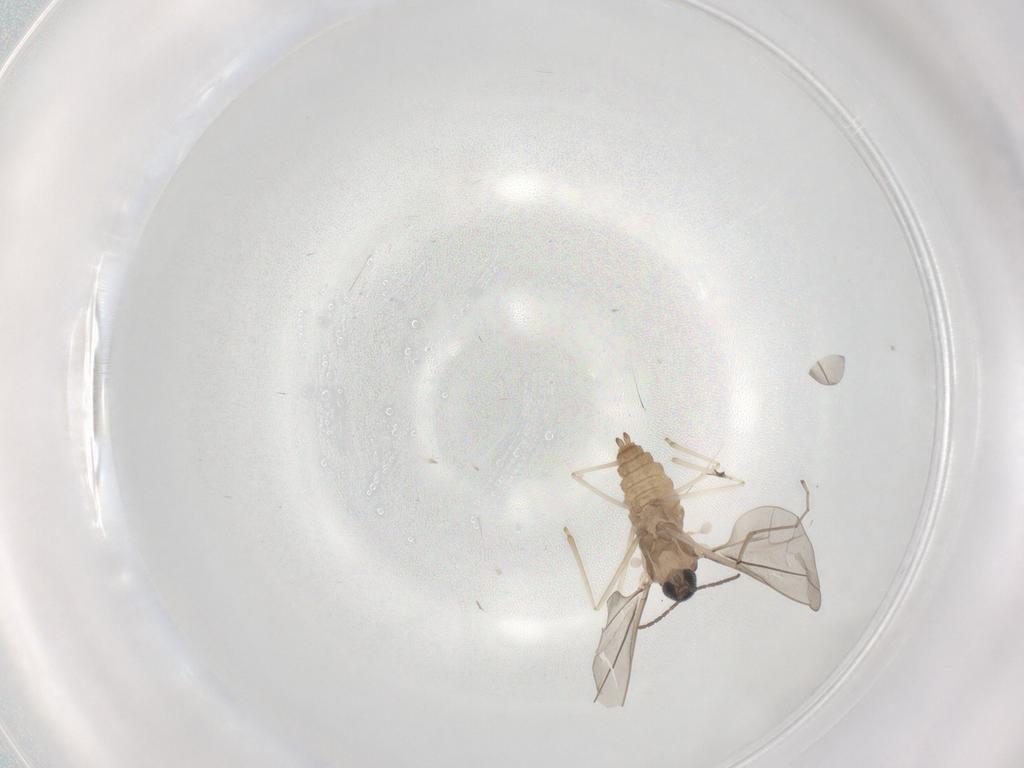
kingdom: Animalia
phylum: Arthropoda
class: Insecta
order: Diptera
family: Cecidomyiidae
